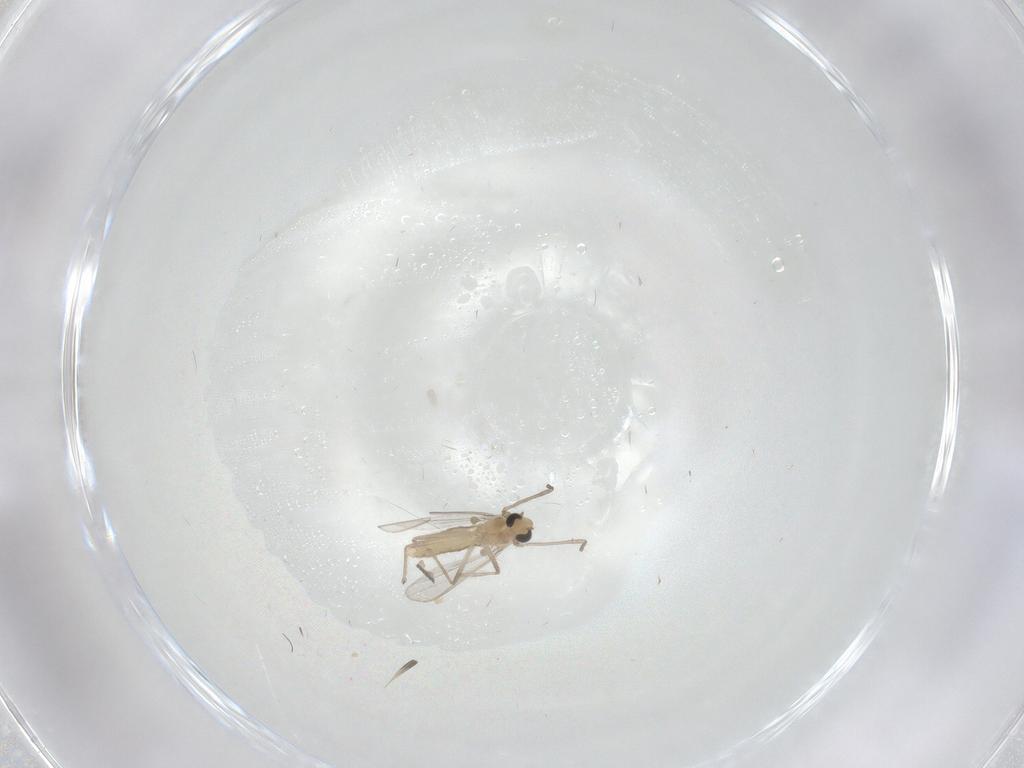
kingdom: Animalia
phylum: Arthropoda
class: Insecta
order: Diptera
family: Chironomidae
